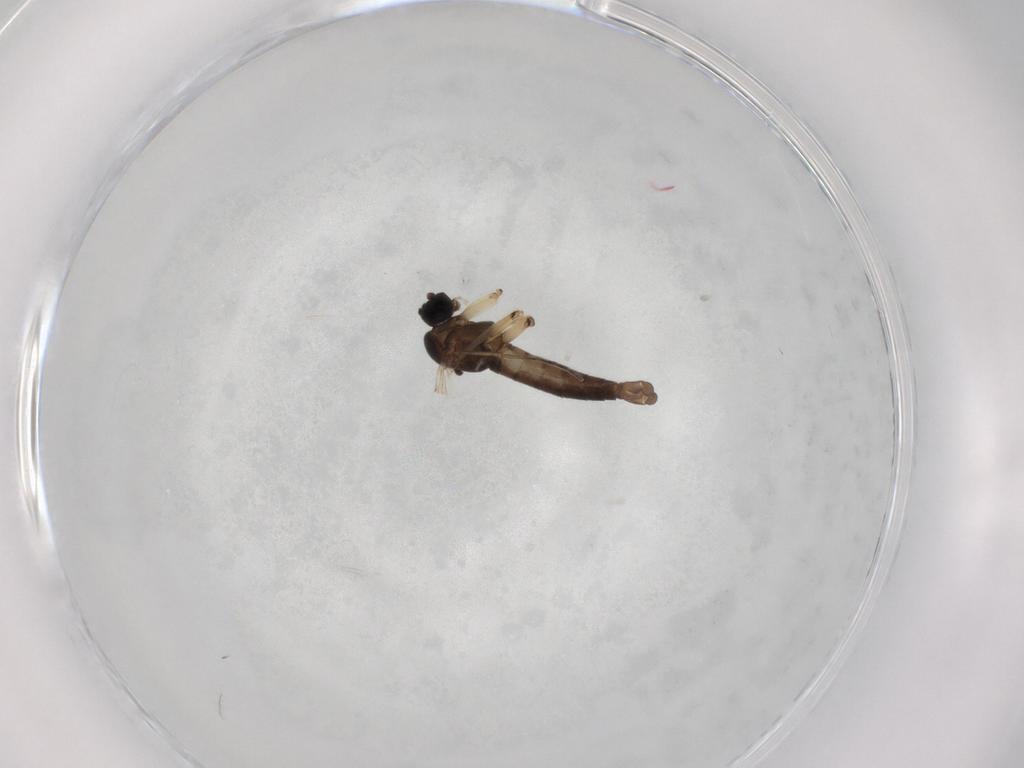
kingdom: Animalia
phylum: Arthropoda
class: Insecta
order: Diptera
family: Sciaridae
